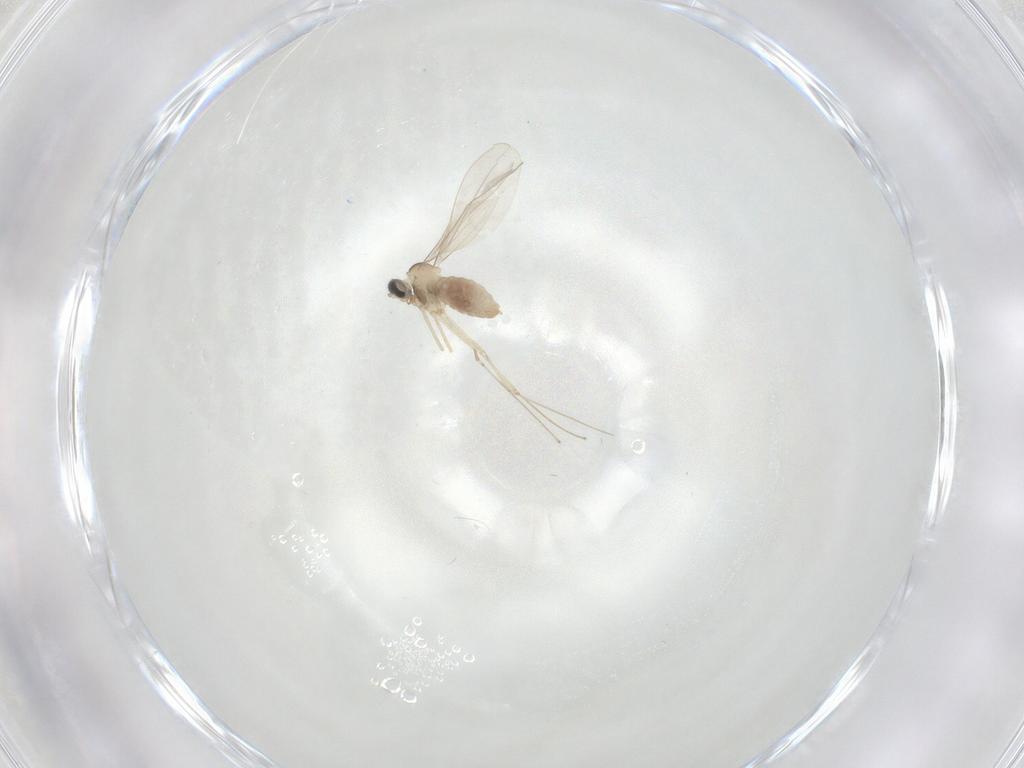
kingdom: Animalia
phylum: Arthropoda
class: Insecta
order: Diptera
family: Cecidomyiidae
